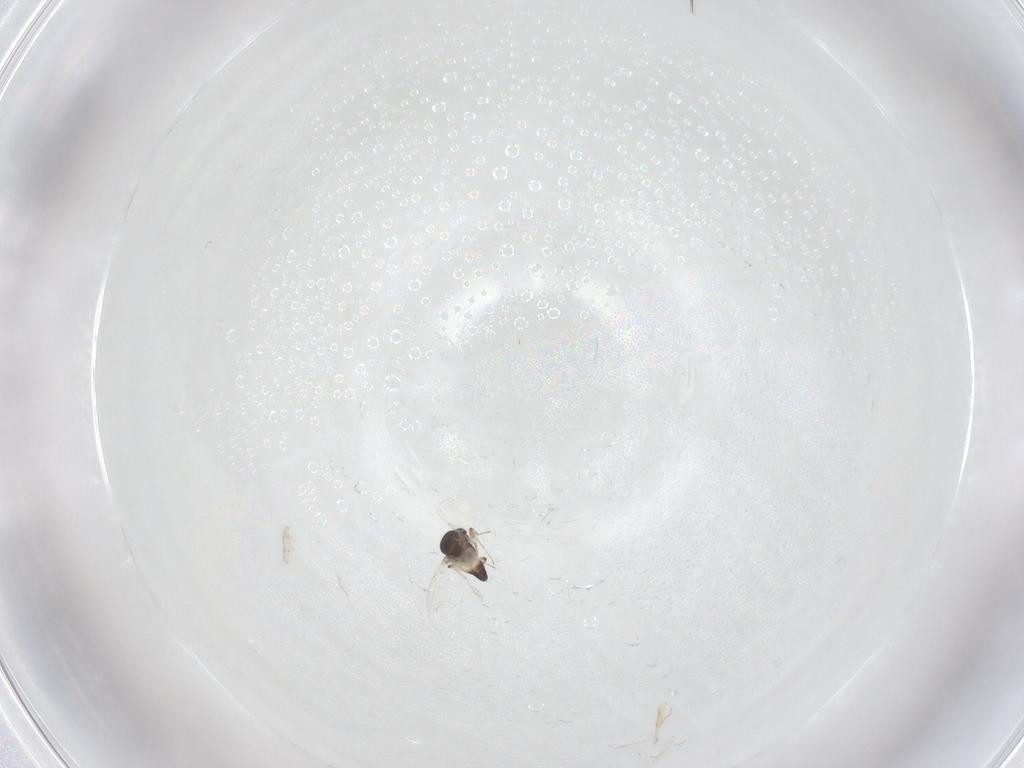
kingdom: Animalia
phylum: Arthropoda
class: Insecta
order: Diptera
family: Ceratopogonidae
